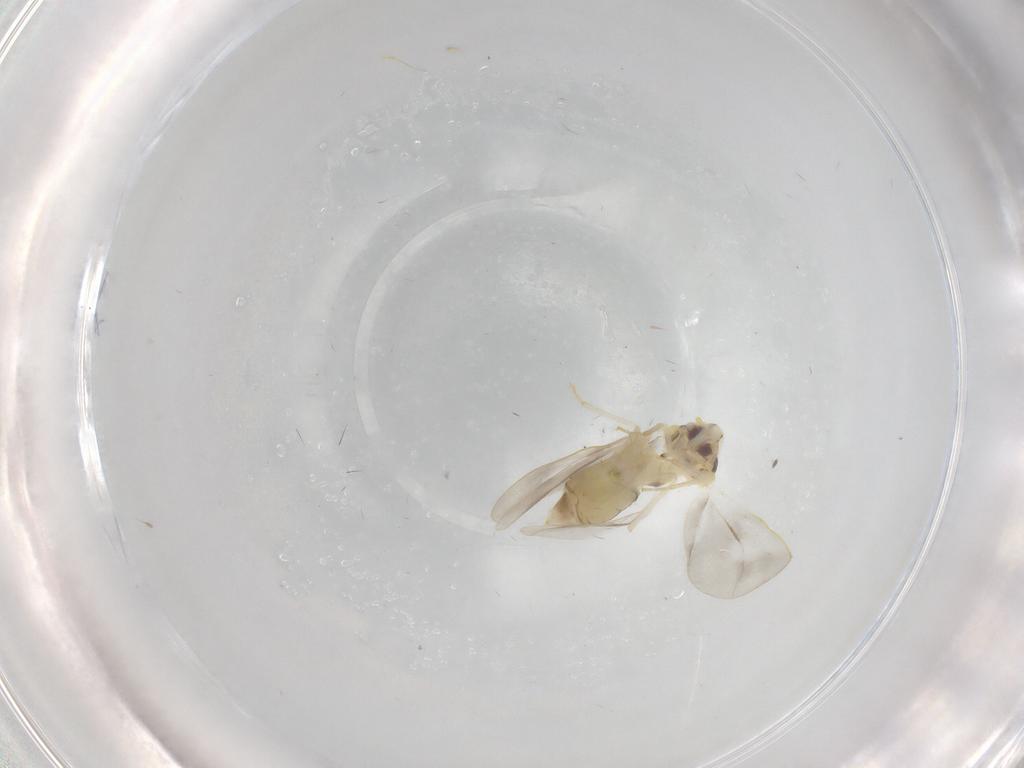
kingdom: Animalia
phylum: Arthropoda
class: Insecta
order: Hemiptera
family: Aleyrodidae
